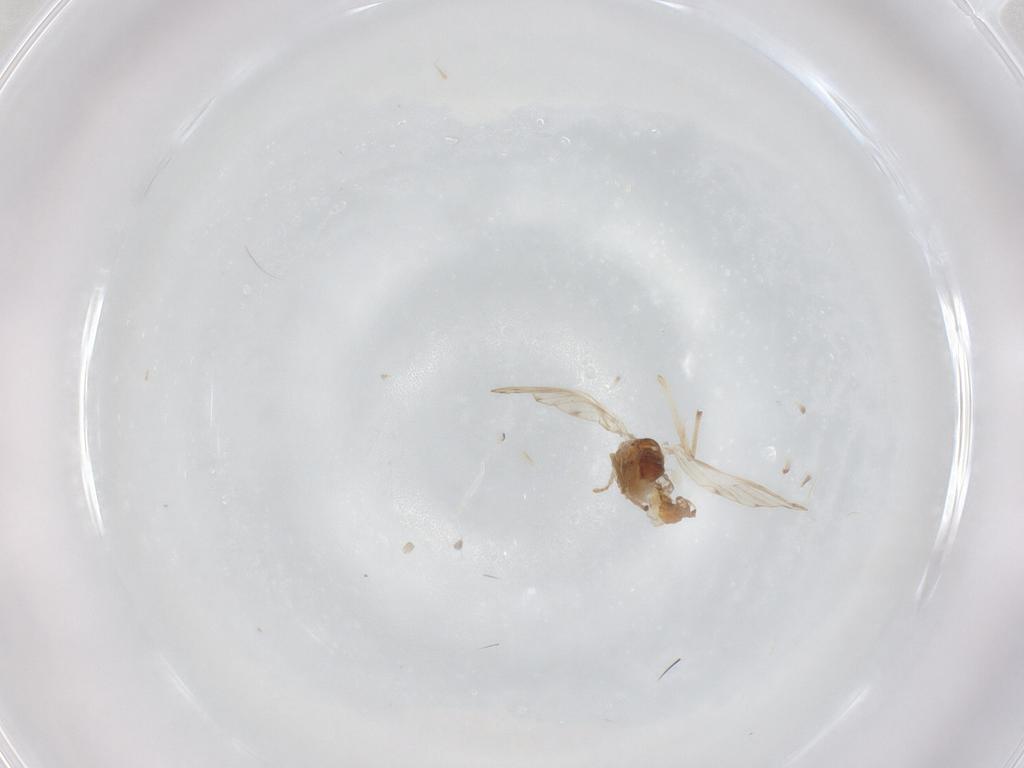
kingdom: Animalia
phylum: Arthropoda
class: Insecta
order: Diptera
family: Psychodidae
